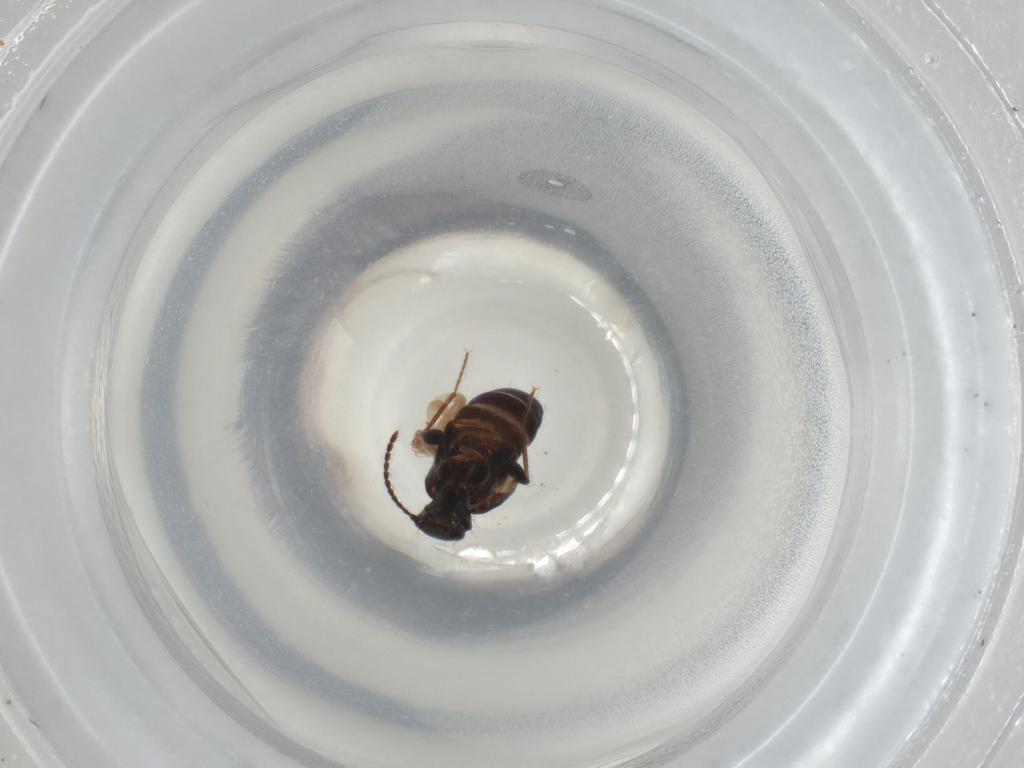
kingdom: Animalia
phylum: Arthropoda
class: Insecta
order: Coleoptera
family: Carabidae
